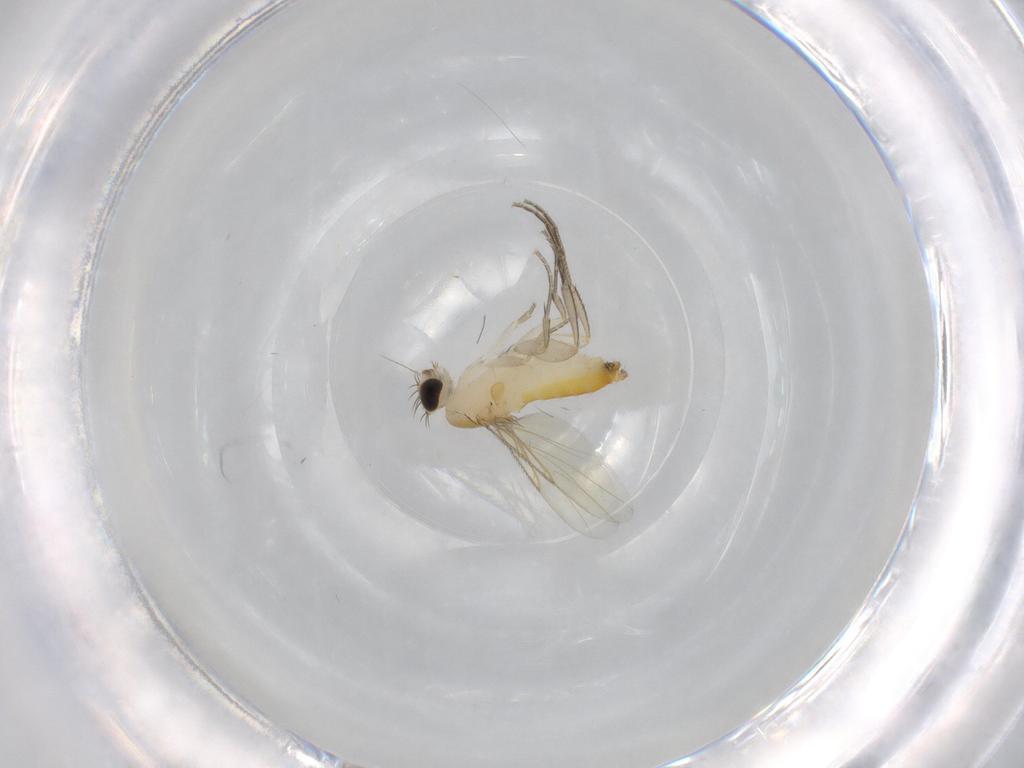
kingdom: Animalia
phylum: Arthropoda
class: Insecta
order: Diptera
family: Phoridae
